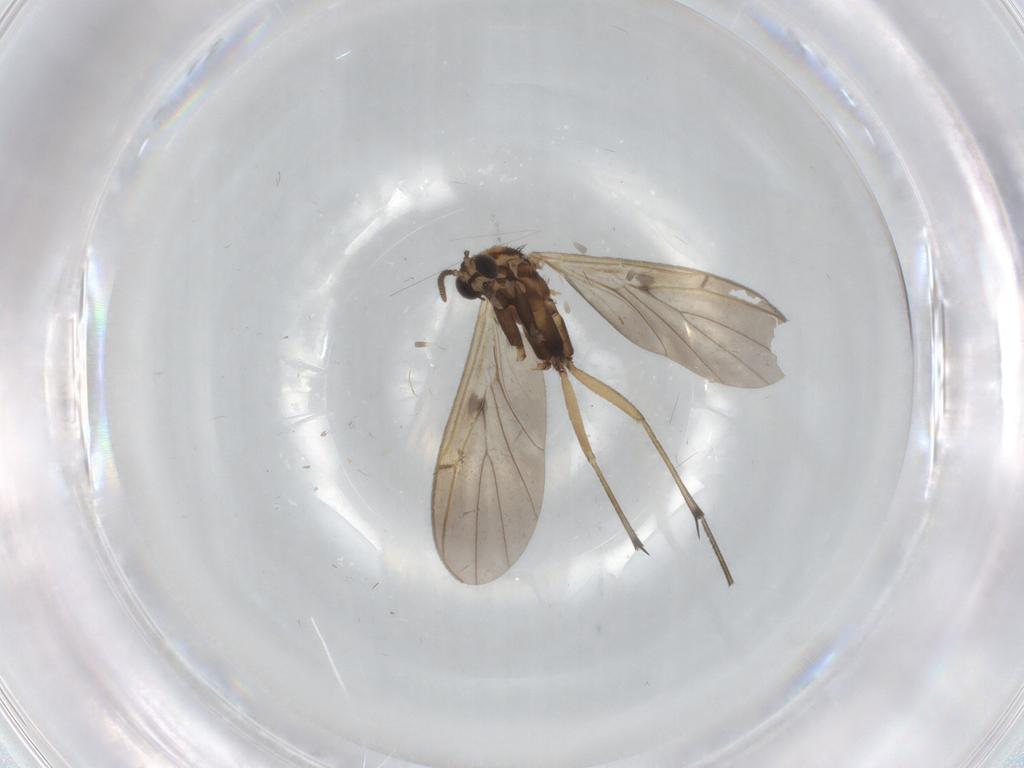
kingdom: Animalia
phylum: Arthropoda
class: Insecta
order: Diptera
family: Keroplatidae
